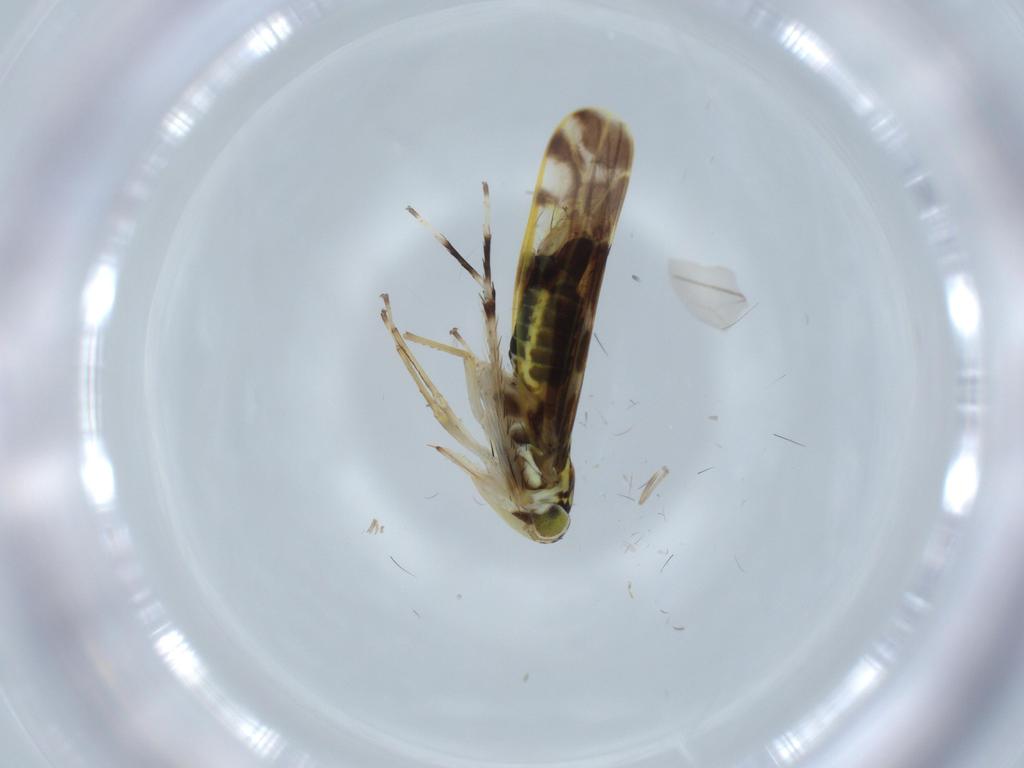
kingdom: Animalia
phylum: Arthropoda
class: Insecta
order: Hemiptera
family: Cicadellidae
